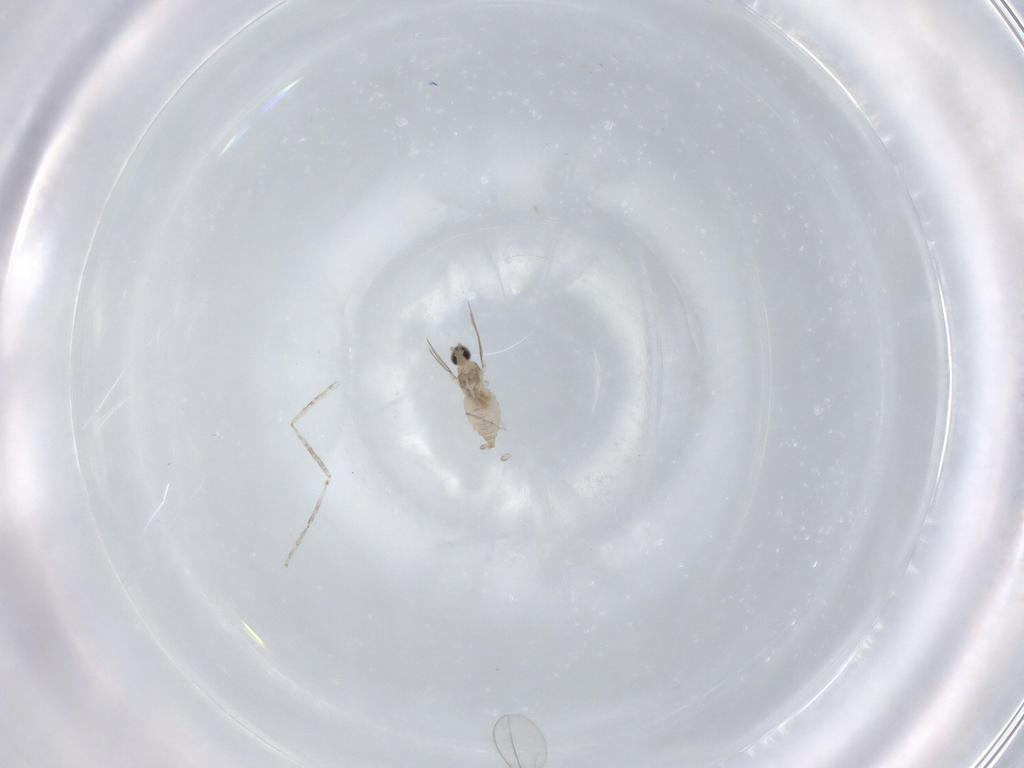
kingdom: Animalia
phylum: Arthropoda
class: Insecta
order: Diptera
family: Cecidomyiidae
